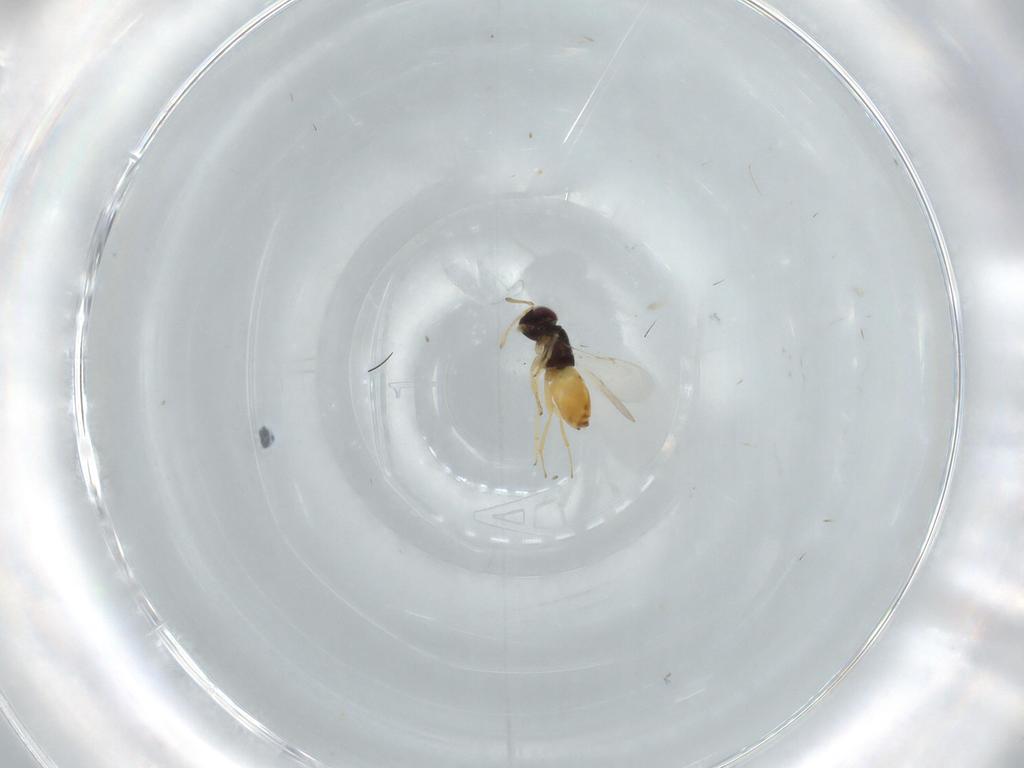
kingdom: Animalia
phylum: Arthropoda
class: Insecta
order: Hymenoptera
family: Encyrtidae
